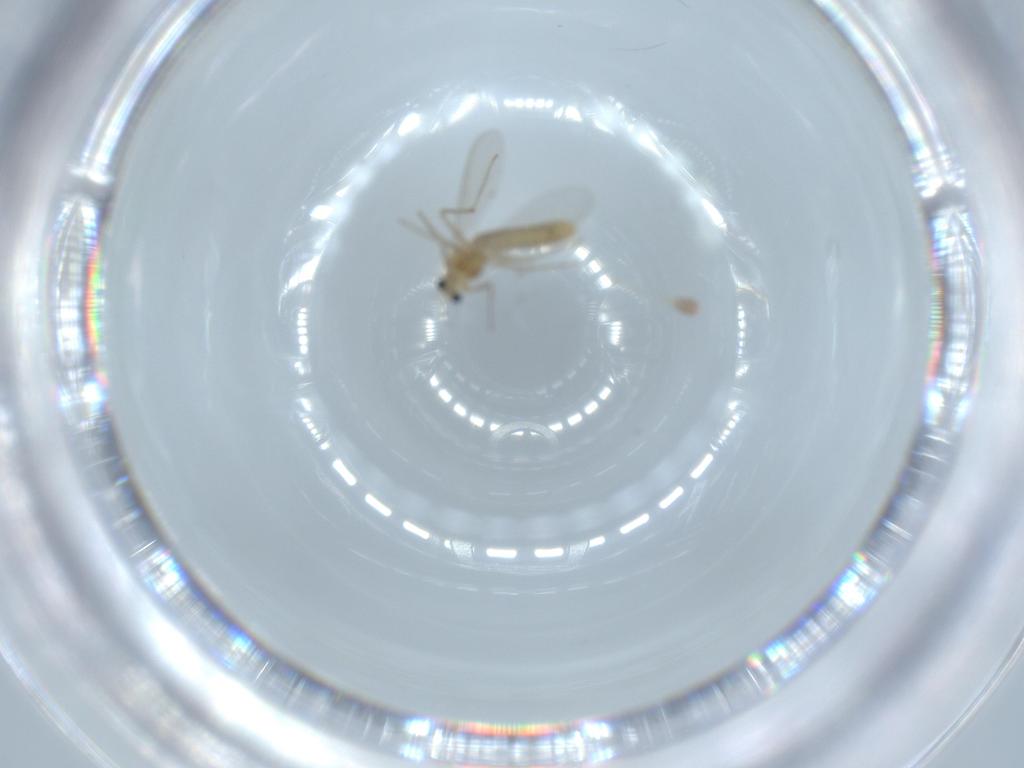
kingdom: Animalia
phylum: Arthropoda
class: Insecta
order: Diptera
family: Chironomidae
